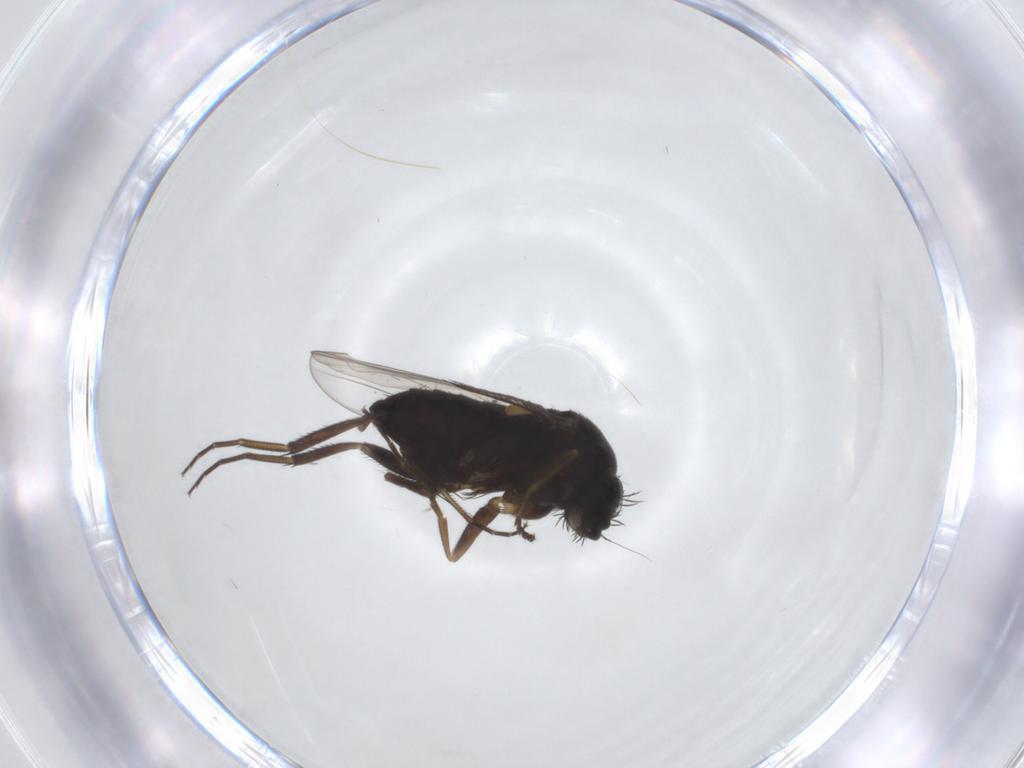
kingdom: Animalia
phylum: Arthropoda
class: Insecta
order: Diptera
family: Phoridae
